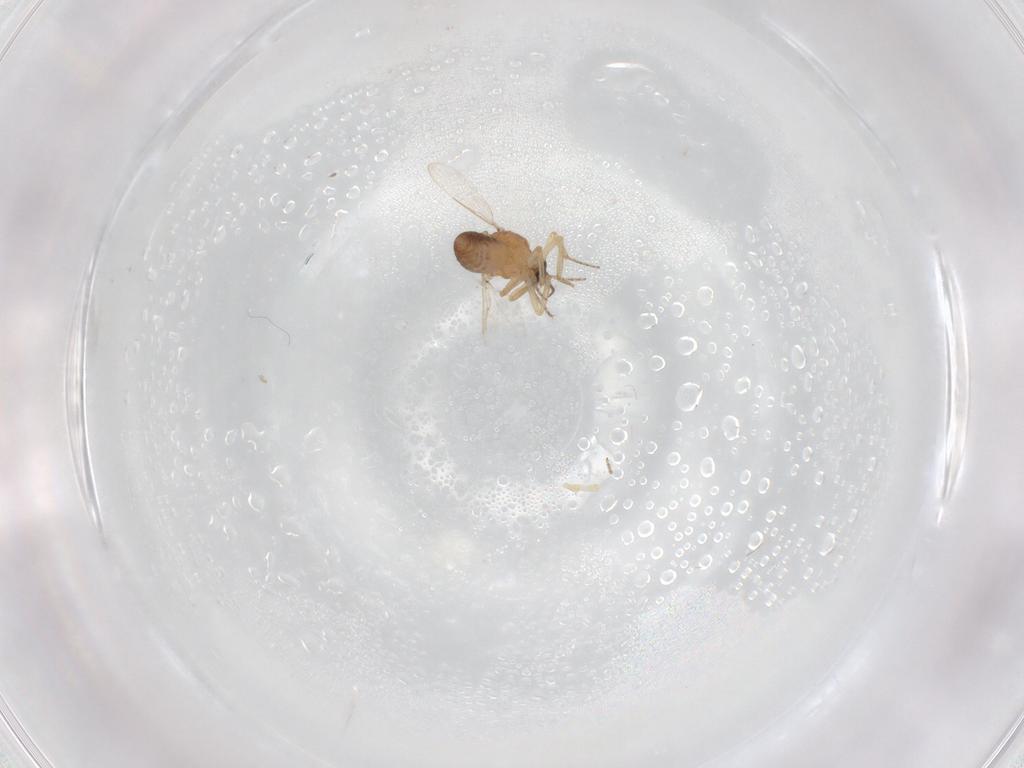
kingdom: Animalia
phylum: Arthropoda
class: Insecta
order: Diptera
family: Ceratopogonidae
